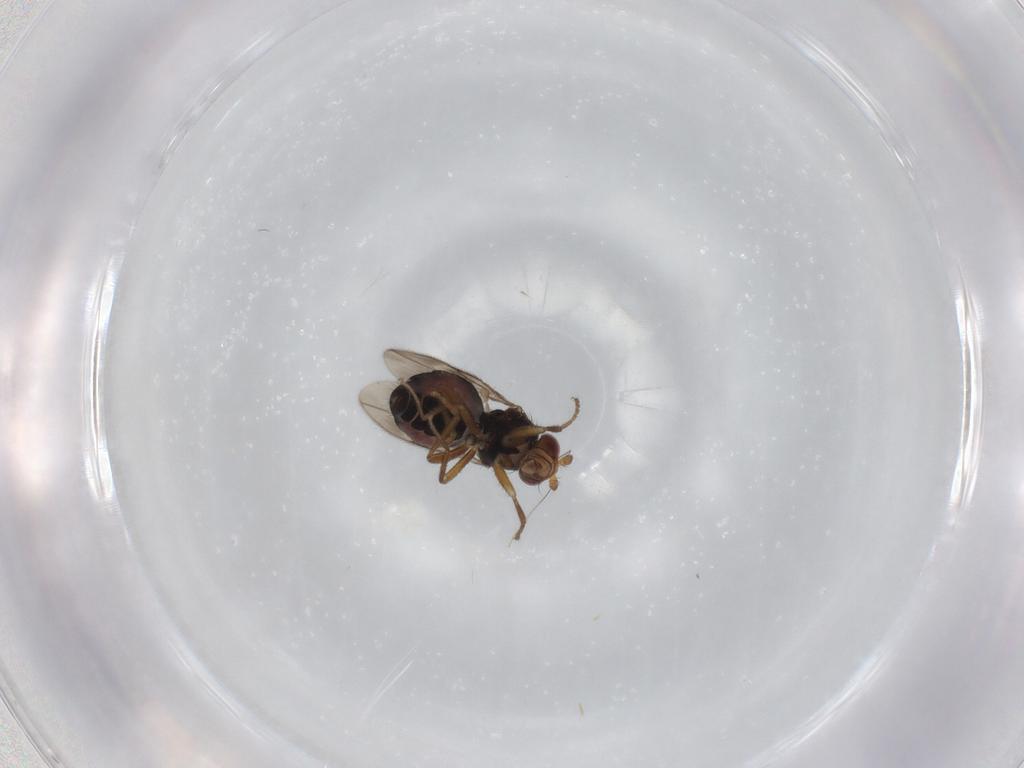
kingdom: Animalia
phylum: Arthropoda
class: Insecta
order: Diptera
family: Sphaeroceridae
